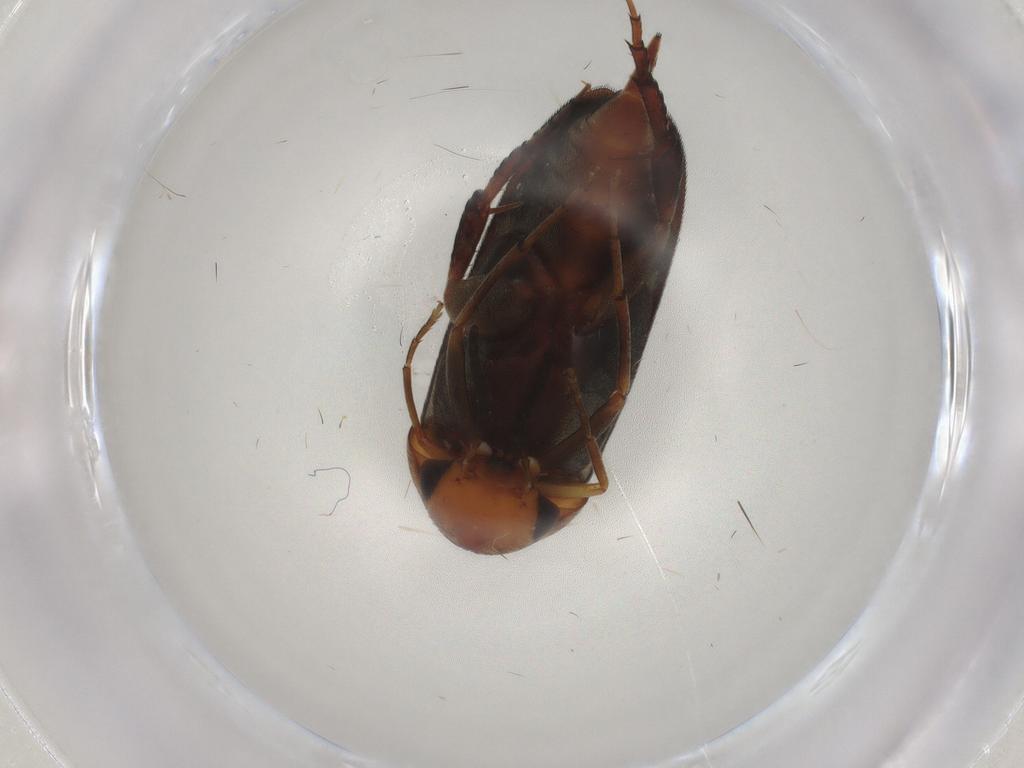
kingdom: Animalia
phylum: Arthropoda
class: Insecta
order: Coleoptera
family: Mordellidae
